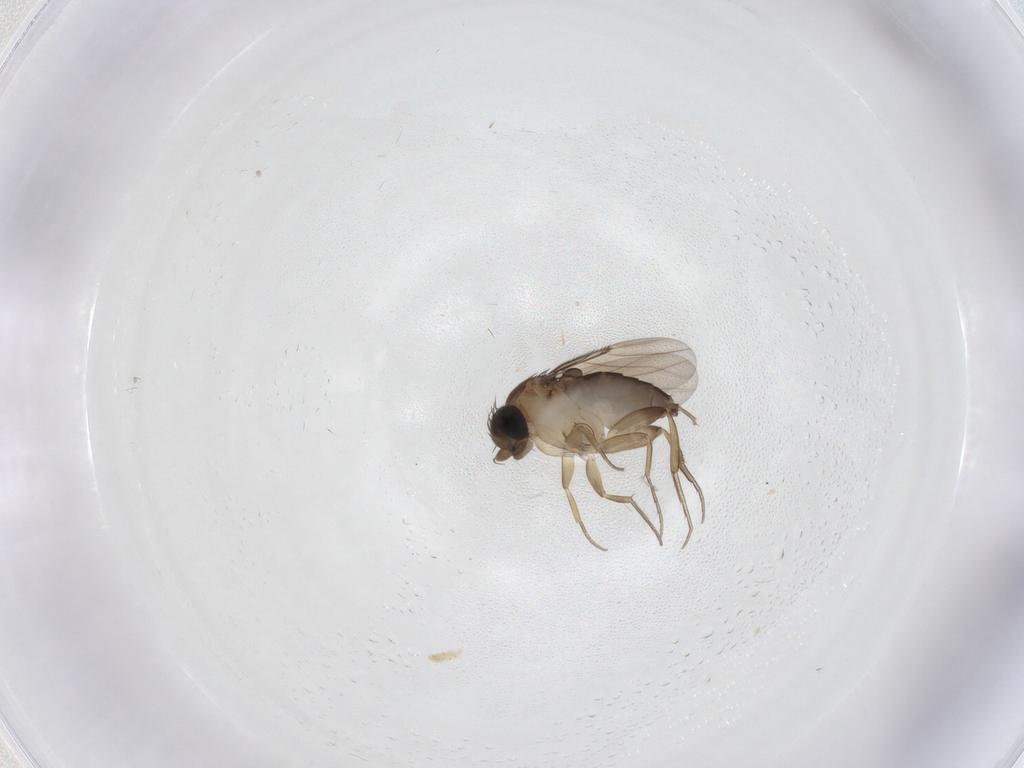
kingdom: Animalia
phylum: Arthropoda
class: Insecta
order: Diptera
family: Phoridae
